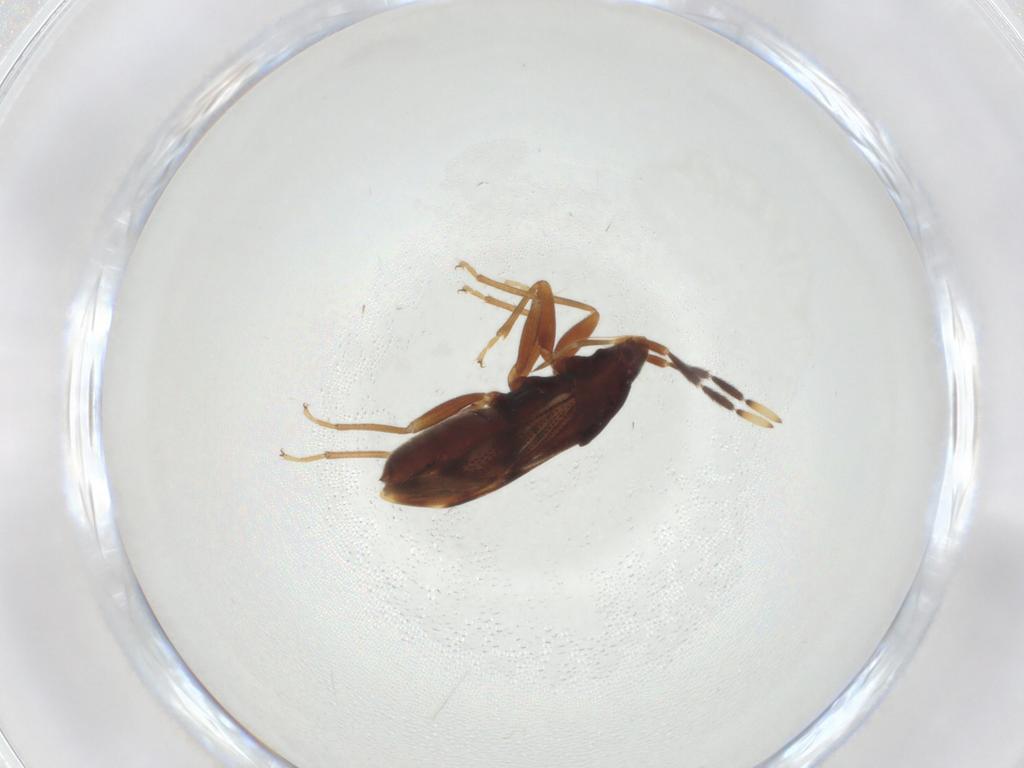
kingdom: Animalia
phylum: Arthropoda
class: Insecta
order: Hemiptera
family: Rhyparochromidae
